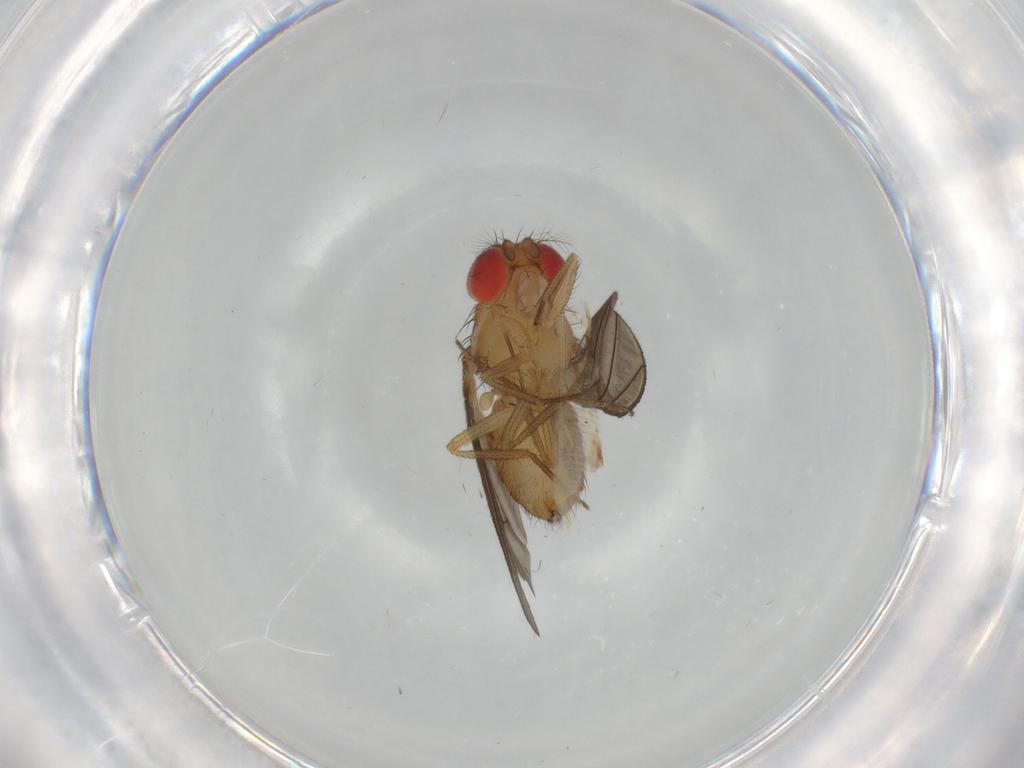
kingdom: Animalia
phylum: Arthropoda
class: Insecta
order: Diptera
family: Drosophilidae
